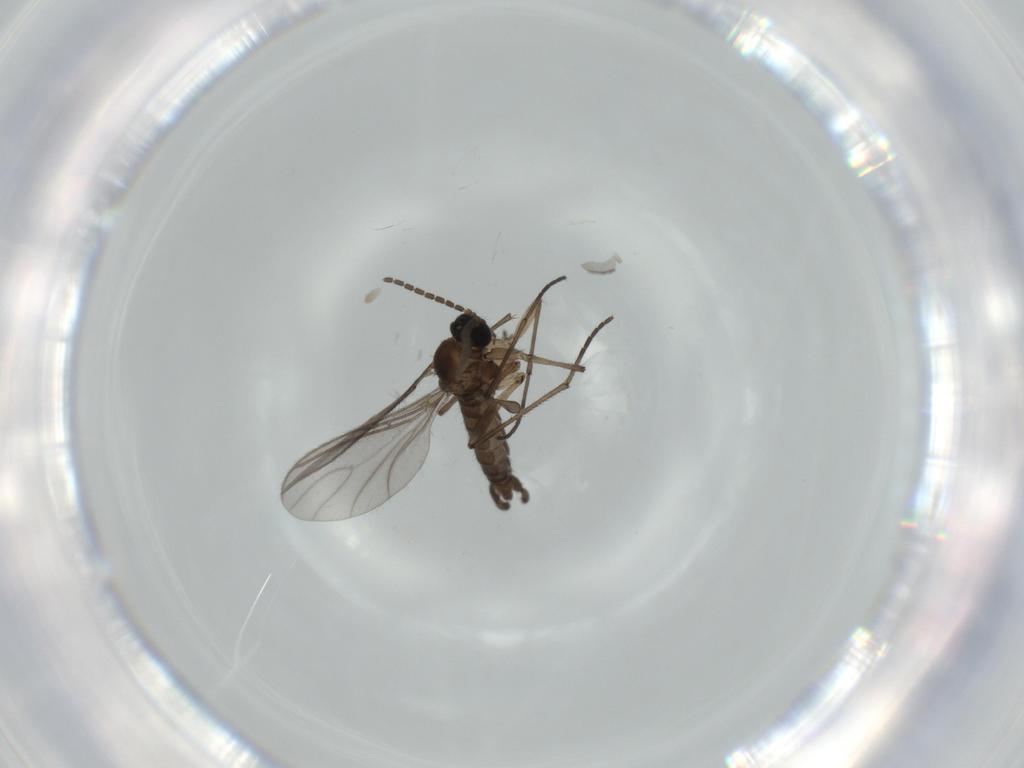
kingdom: Animalia
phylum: Arthropoda
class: Insecta
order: Diptera
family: Sciaridae
